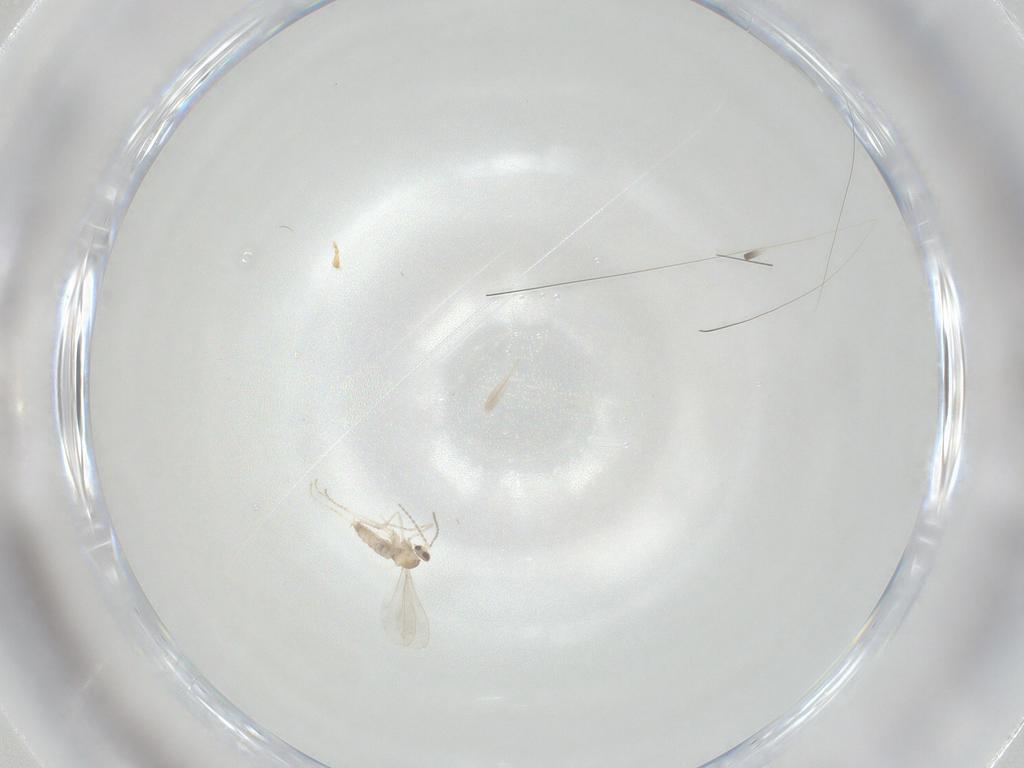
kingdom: Animalia
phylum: Arthropoda
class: Insecta
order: Diptera
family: Cecidomyiidae
